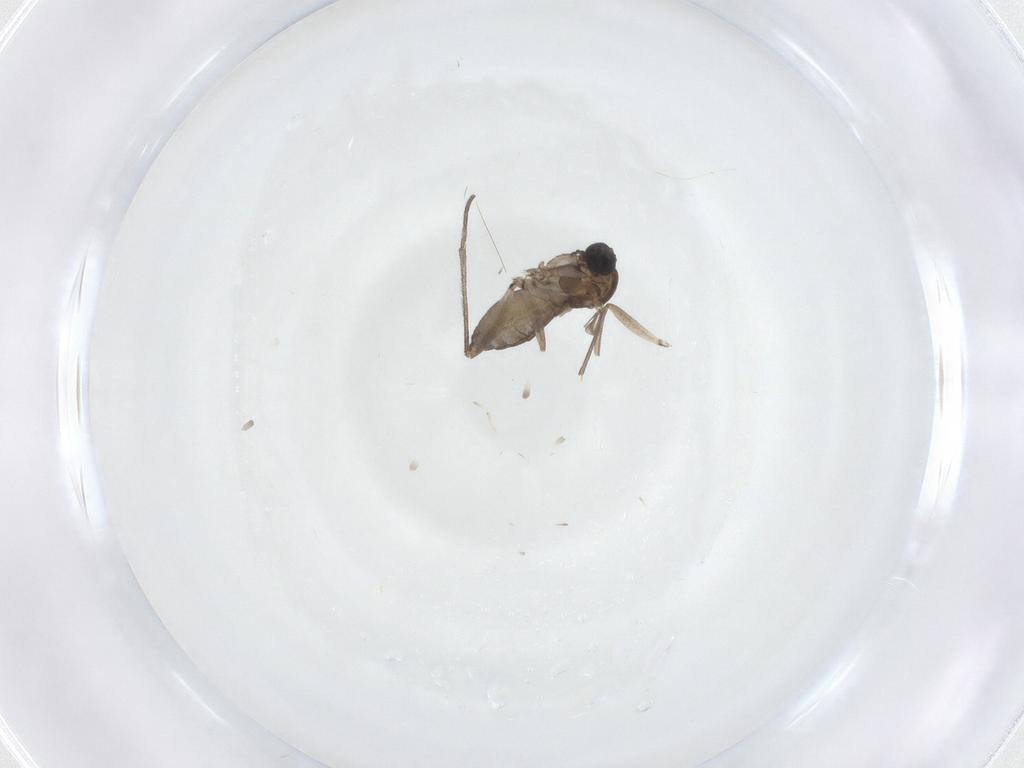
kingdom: Animalia
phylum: Arthropoda
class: Insecta
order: Diptera
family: Sciaridae
